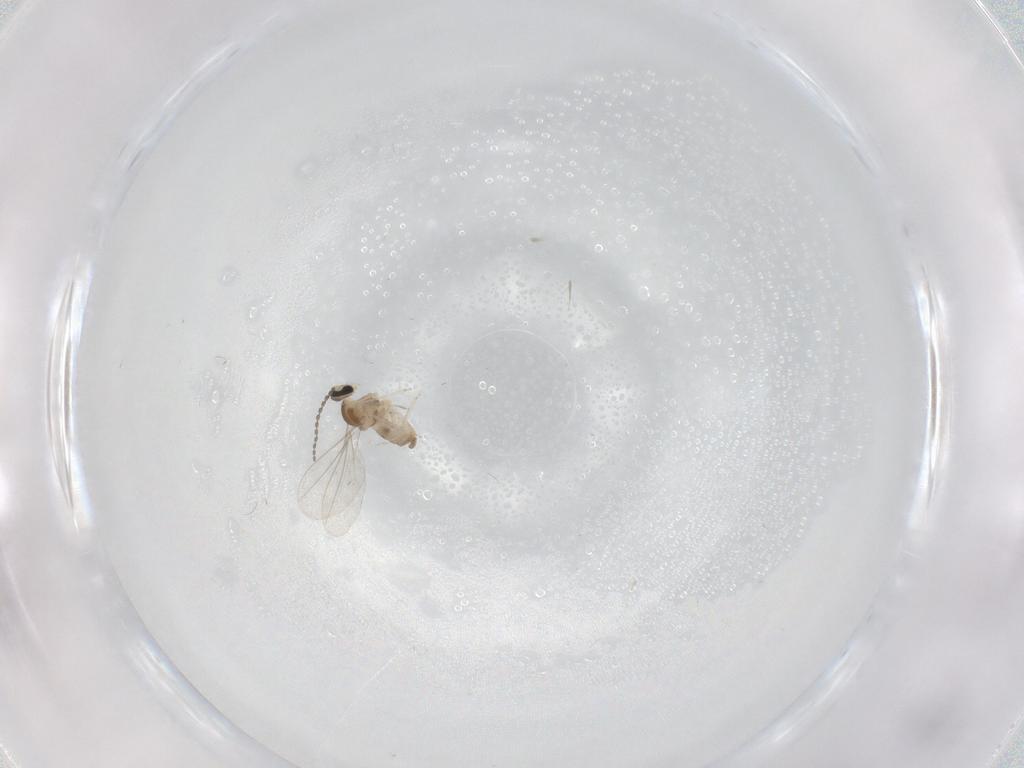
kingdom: Animalia
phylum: Arthropoda
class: Insecta
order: Diptera
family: Cecidomyiidae
